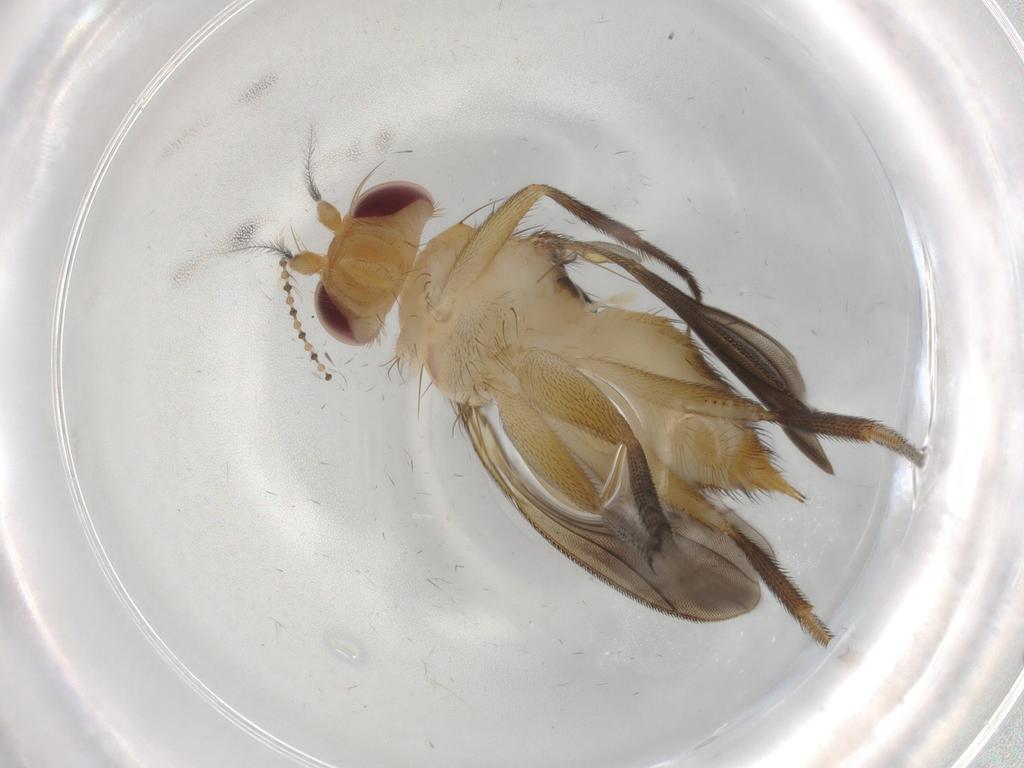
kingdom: Animalia
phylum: Arthropoda
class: Insecta
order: Diptera
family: Clusiidae
